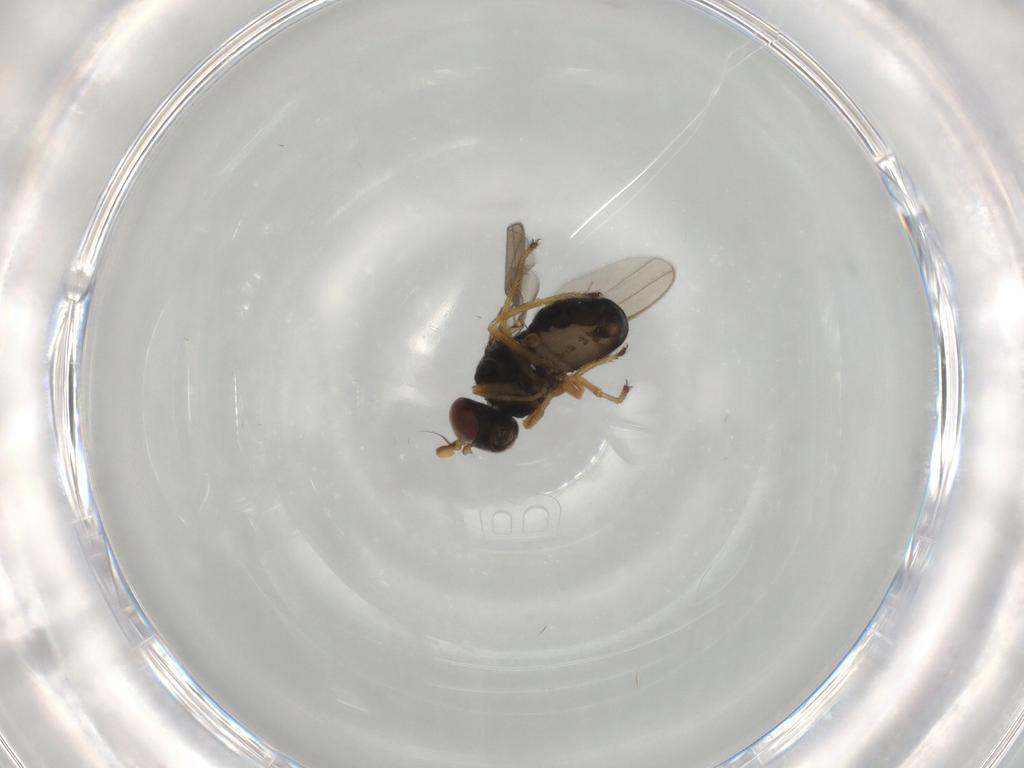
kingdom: Animalia
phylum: Arthropoda
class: Insecta
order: Diptera
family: Ephydridae
